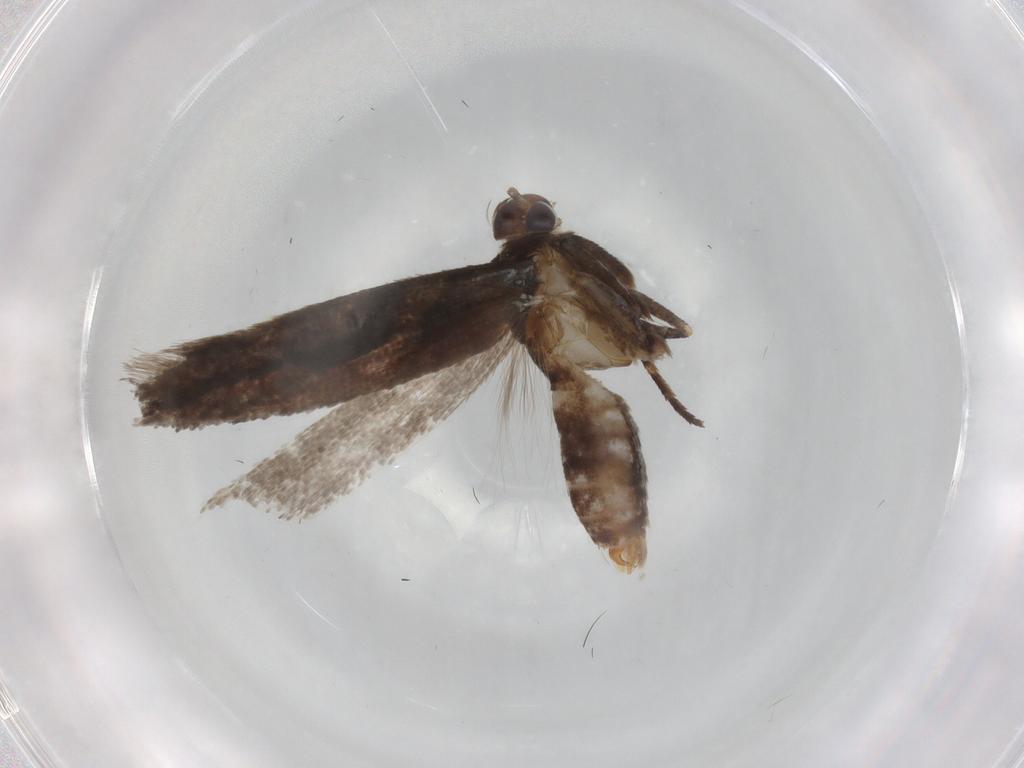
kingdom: Animalia
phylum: Arthropoda
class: Insecta
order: Lepidoptera
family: Gelechiidae
